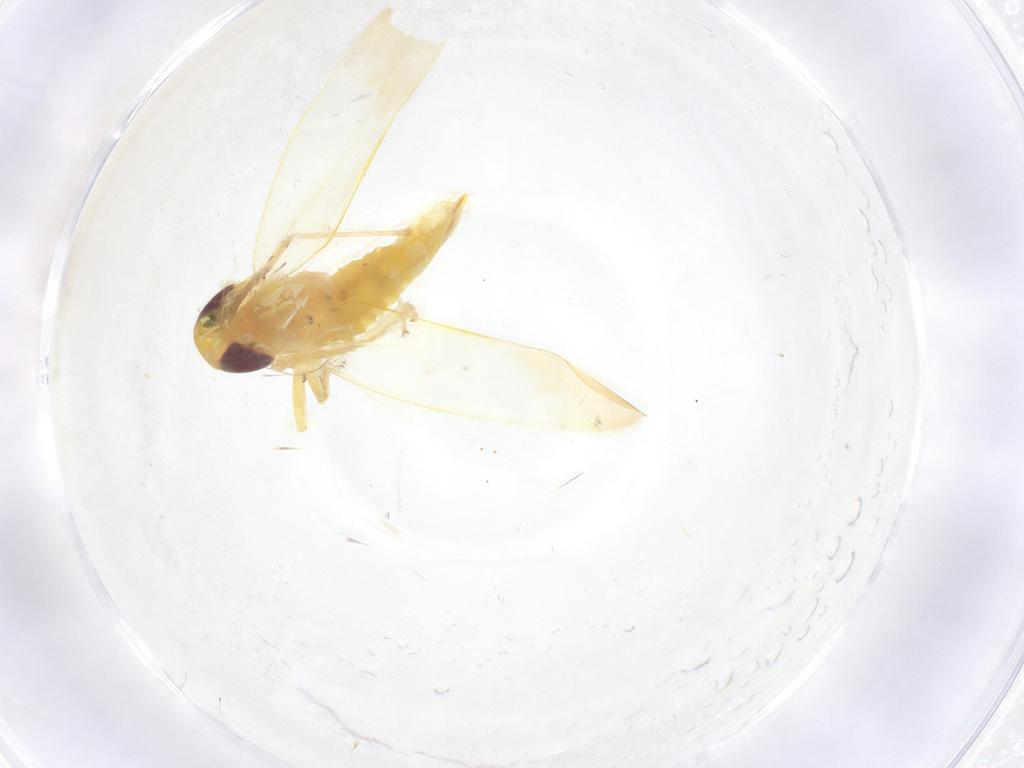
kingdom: Animalia
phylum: Arthropoda
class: Insecta
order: Hemiptera
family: Cicadellidae
